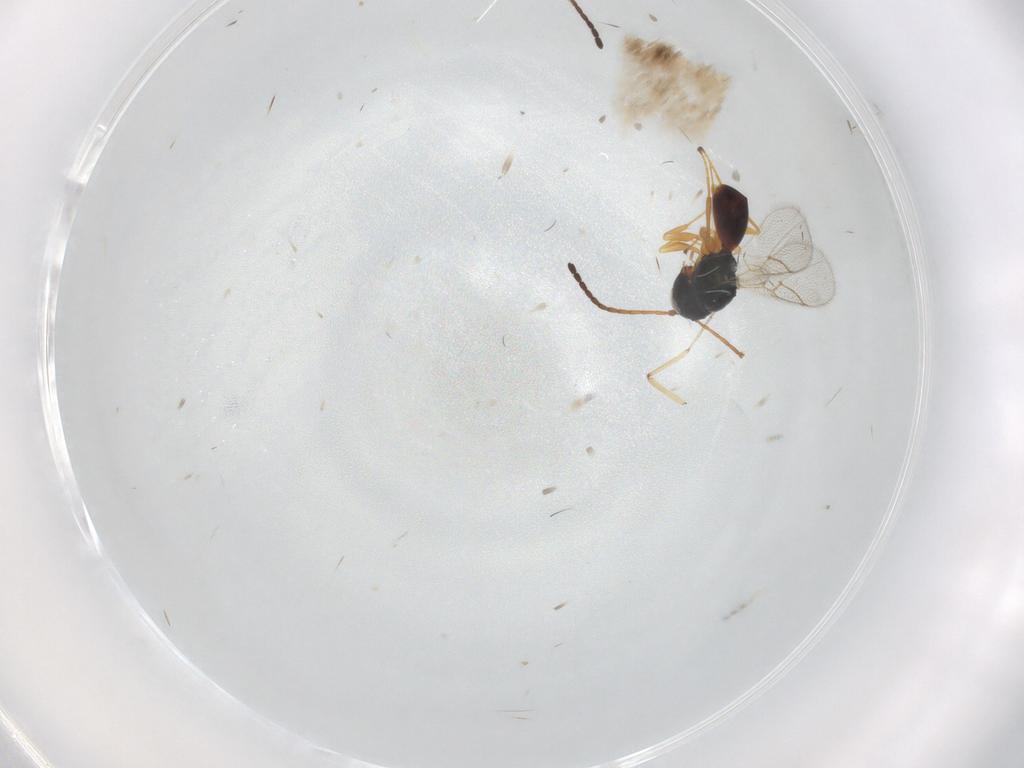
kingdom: Animalia
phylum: Arthropoda
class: Insecta
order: Hymenoptera
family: Figitidae
